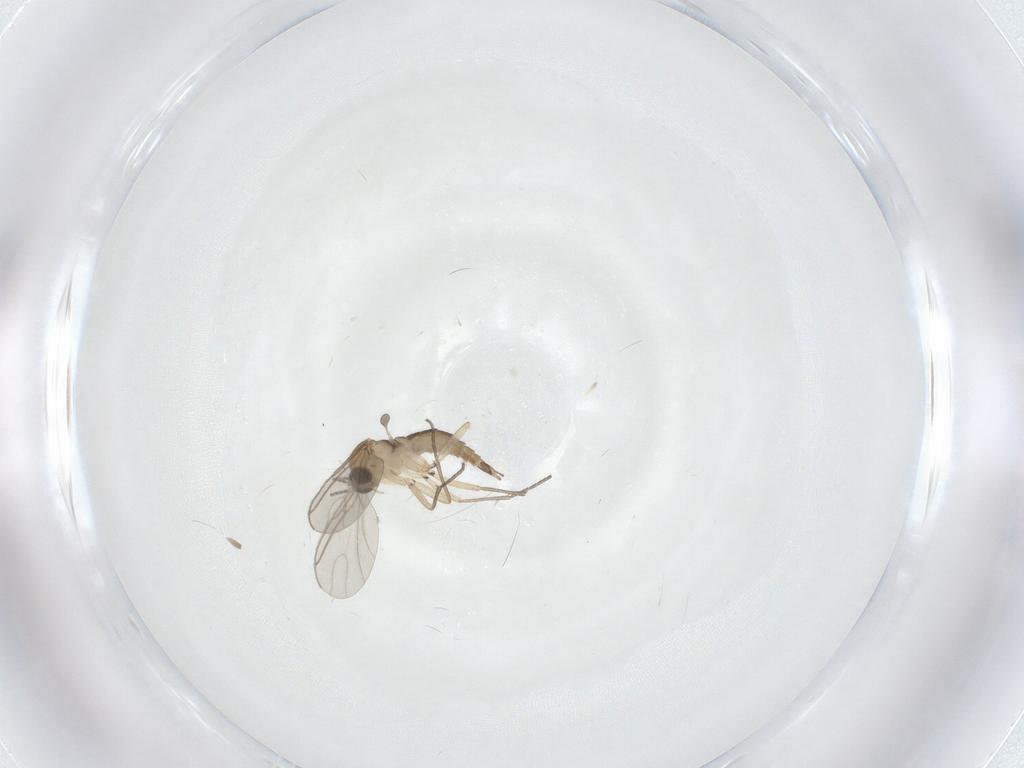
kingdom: Animalia
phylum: Arthropoda
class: Insecta
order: Diptera
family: Sciaridae
